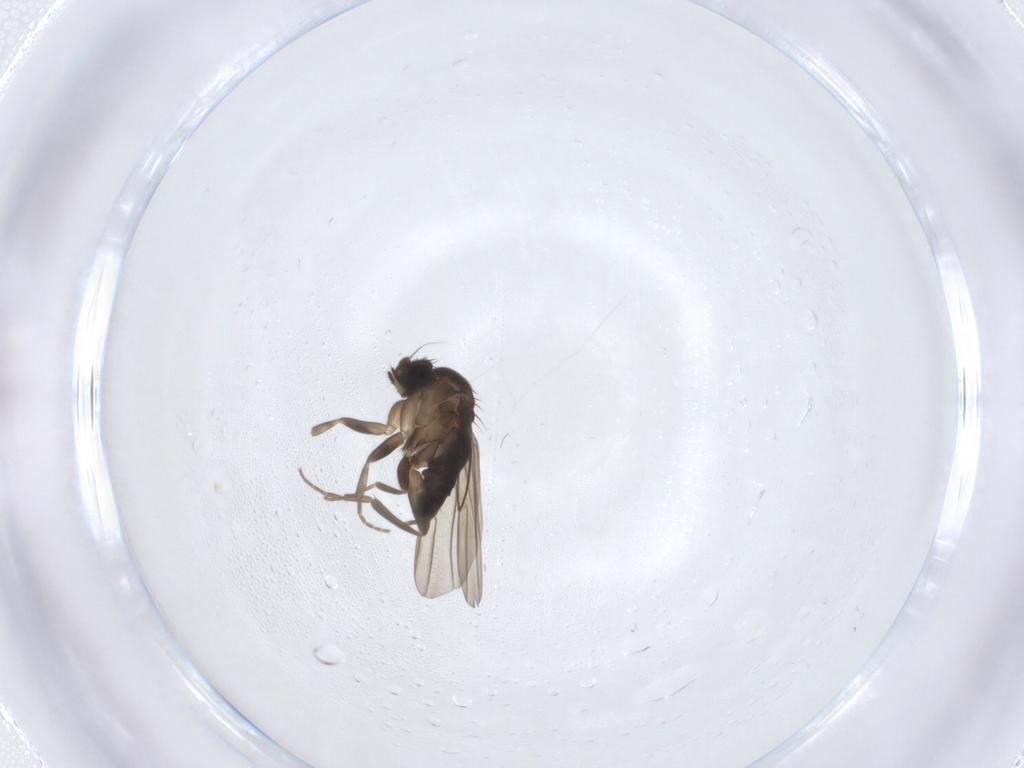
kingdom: Animalia
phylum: Arthropoda
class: Insecta
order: Diptera
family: Phoridae
